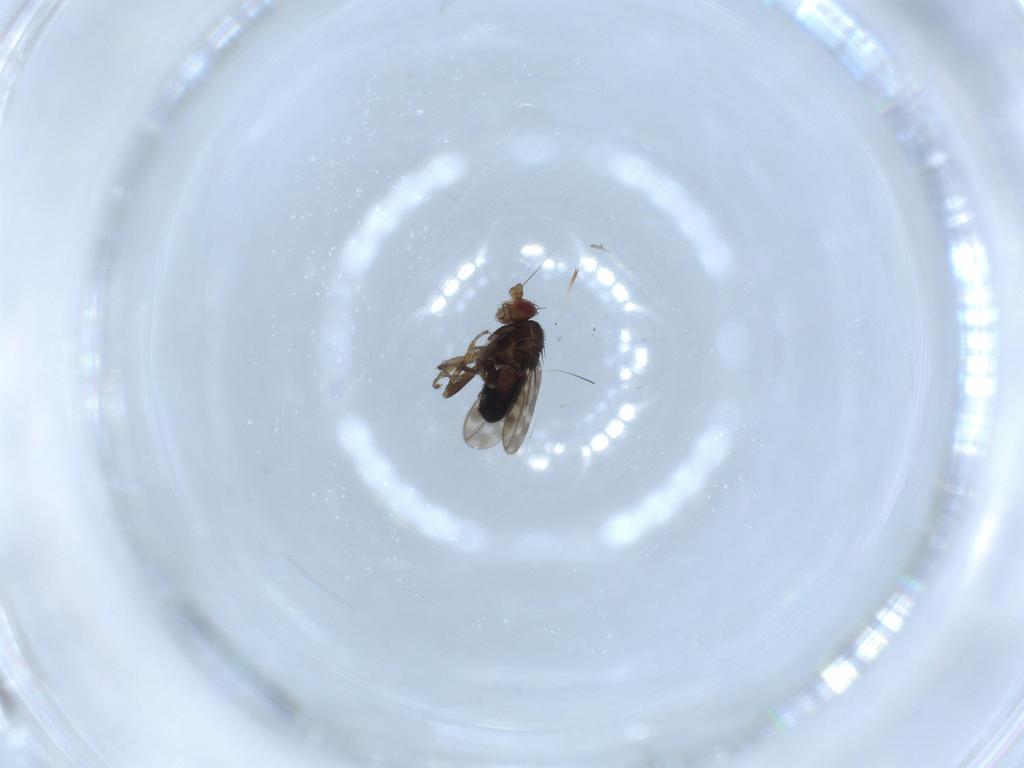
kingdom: Animalia
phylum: Arthropoda
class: Insecta
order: Diptera
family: Sphaeroceridae
